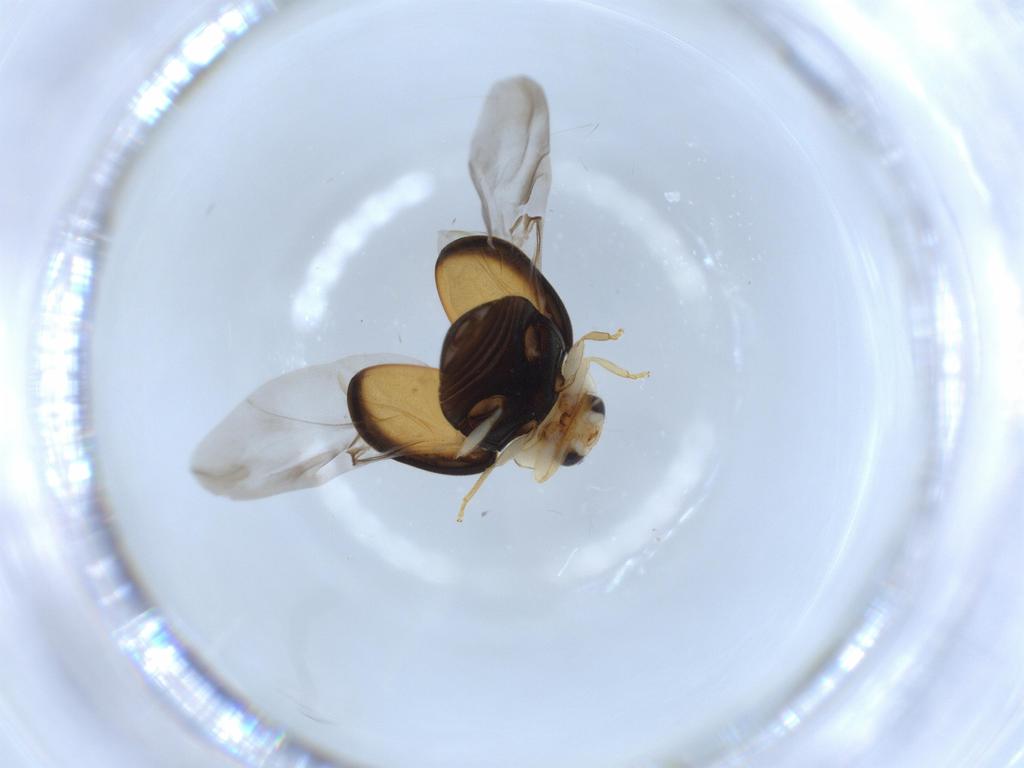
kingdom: Animalia
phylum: Arthropoda
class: Insecta
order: Coleoptera
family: Coccinellidae
